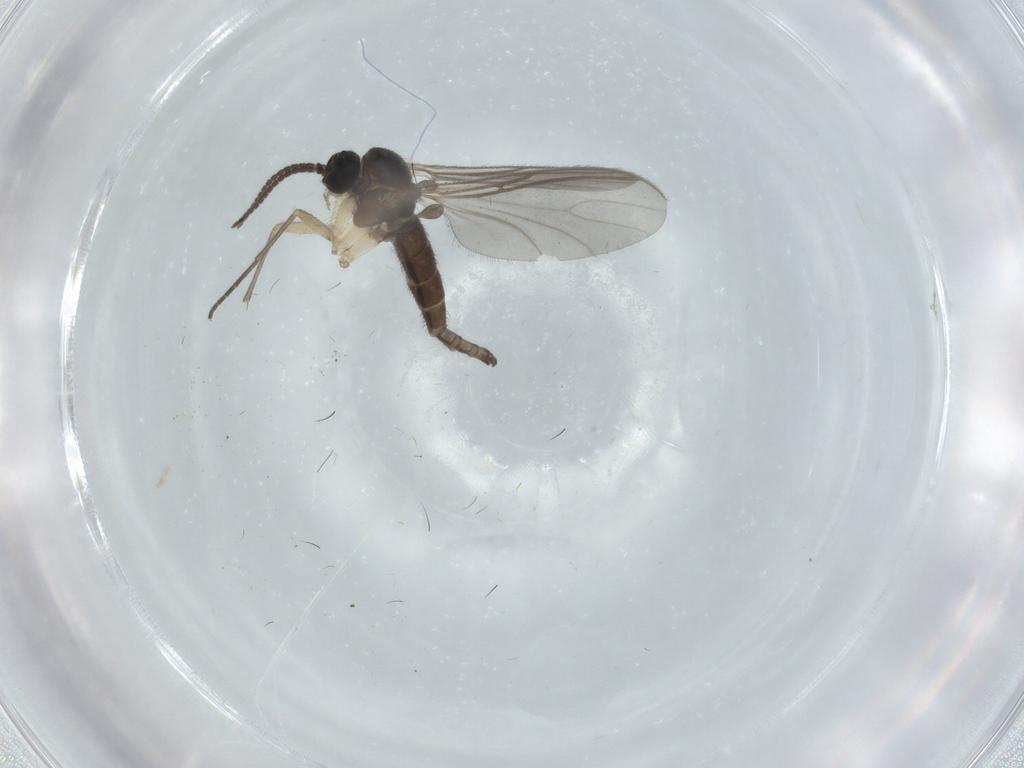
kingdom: Animalia
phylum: Arthropoda
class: Insecta
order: Diptera
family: Sciaridae
